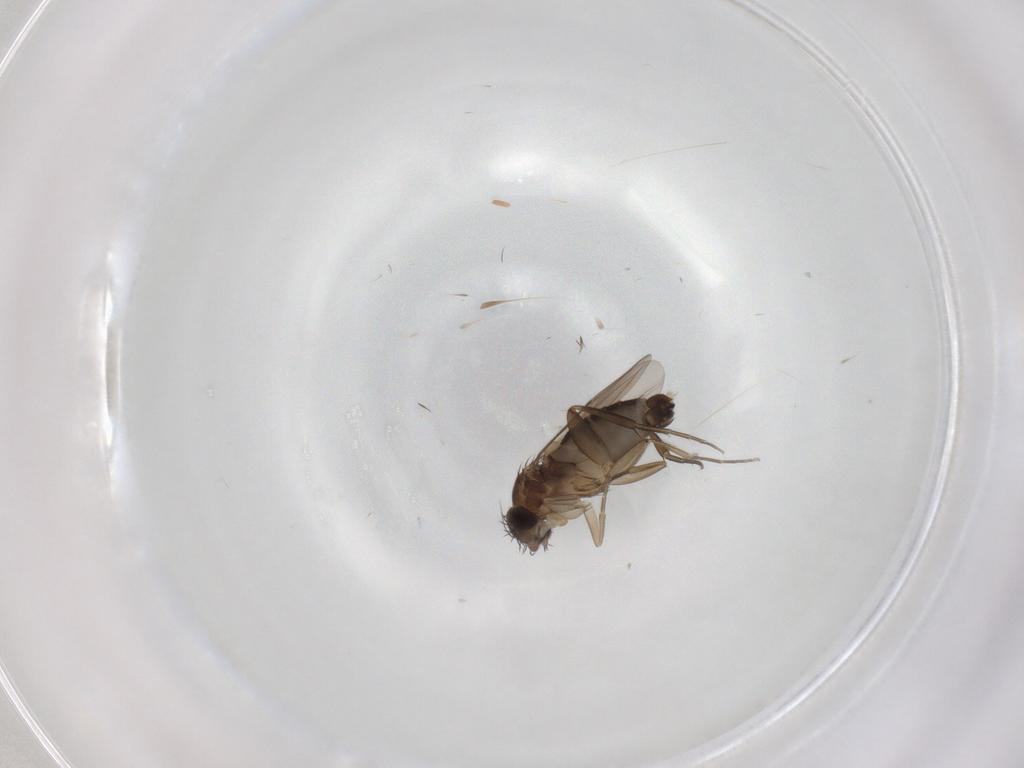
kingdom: Animalia
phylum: Arthropoda
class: Insecta
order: Diptera
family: Phoridae
